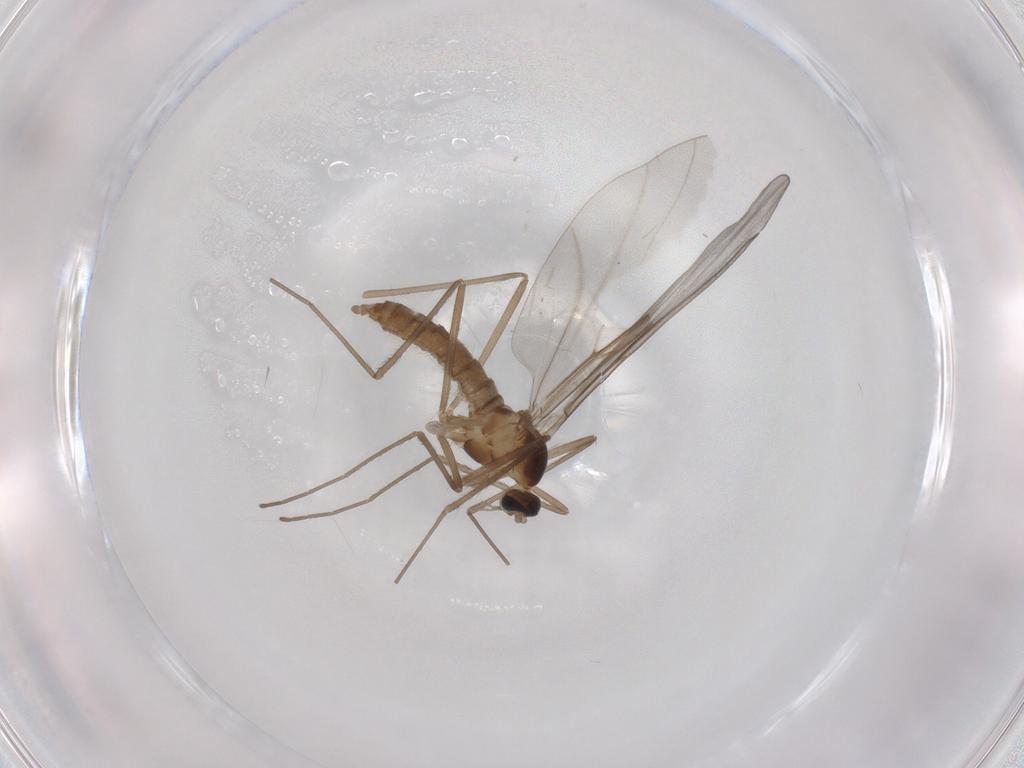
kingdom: Animalia
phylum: Arthropoda
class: Insecta
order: Diptera
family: Cecidomyiidae
